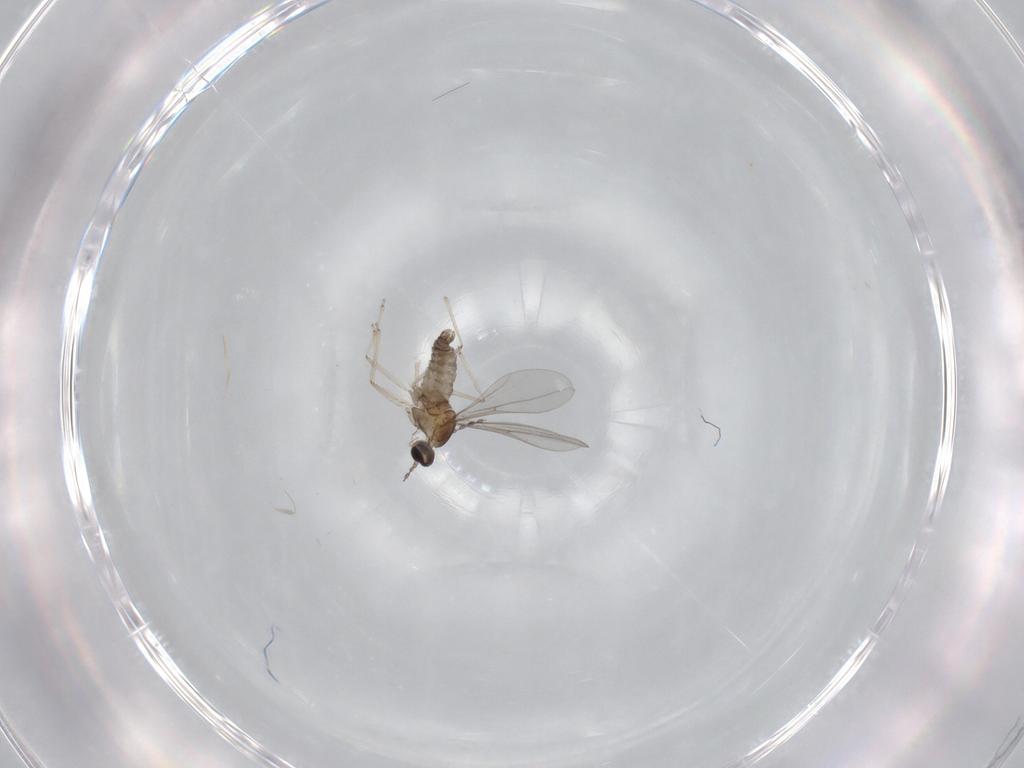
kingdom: Animalia
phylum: Arthropoda
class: Insecta
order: Diptera
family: Cecidomyiidae
